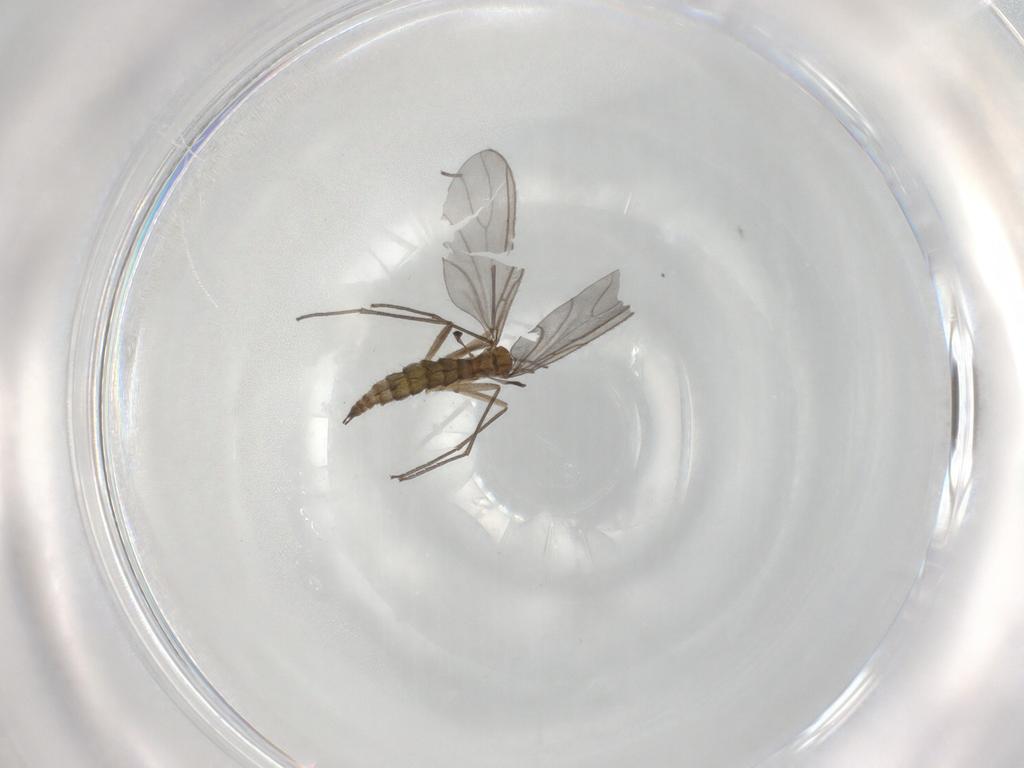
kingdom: Animalia
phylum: Arthropoda
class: Insecta
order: Diptera
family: Sciaridae
